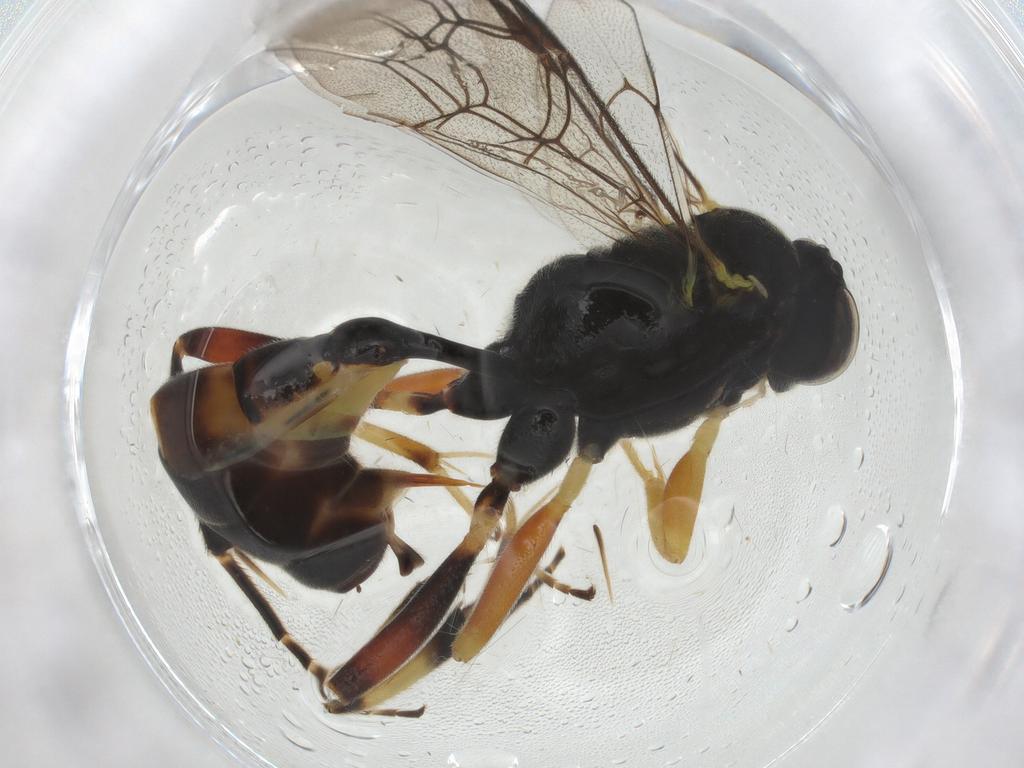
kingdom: Animalia
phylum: Arthropoda
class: Insecta
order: Hymenoptera
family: Ichneumonidae
